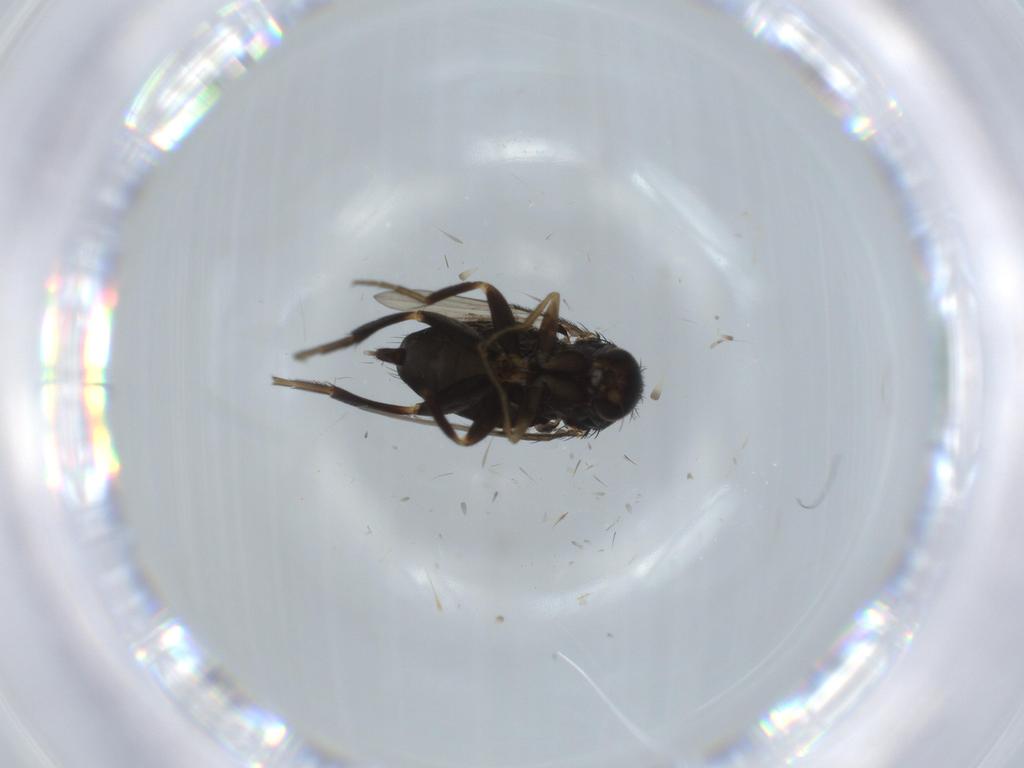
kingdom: Animalia
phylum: Arthropoda
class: Insecta
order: Diptera
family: Phoridae
